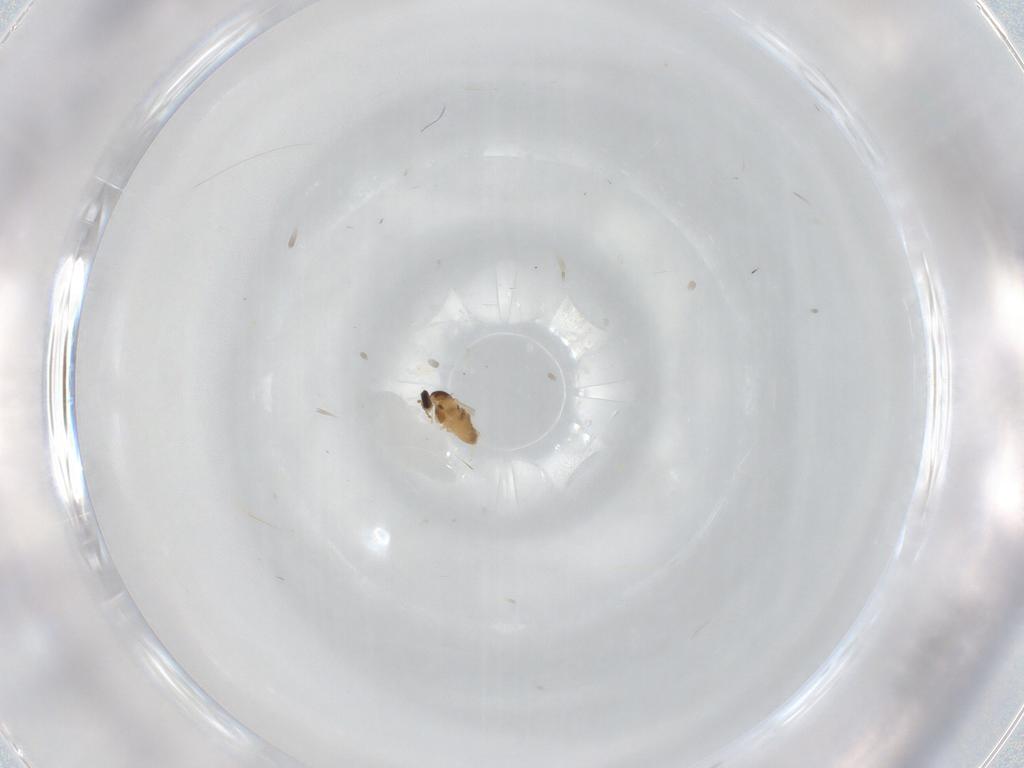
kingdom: Animalia
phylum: Arthropoda
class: Insecta
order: Diptera
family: Cecidomyiidae
